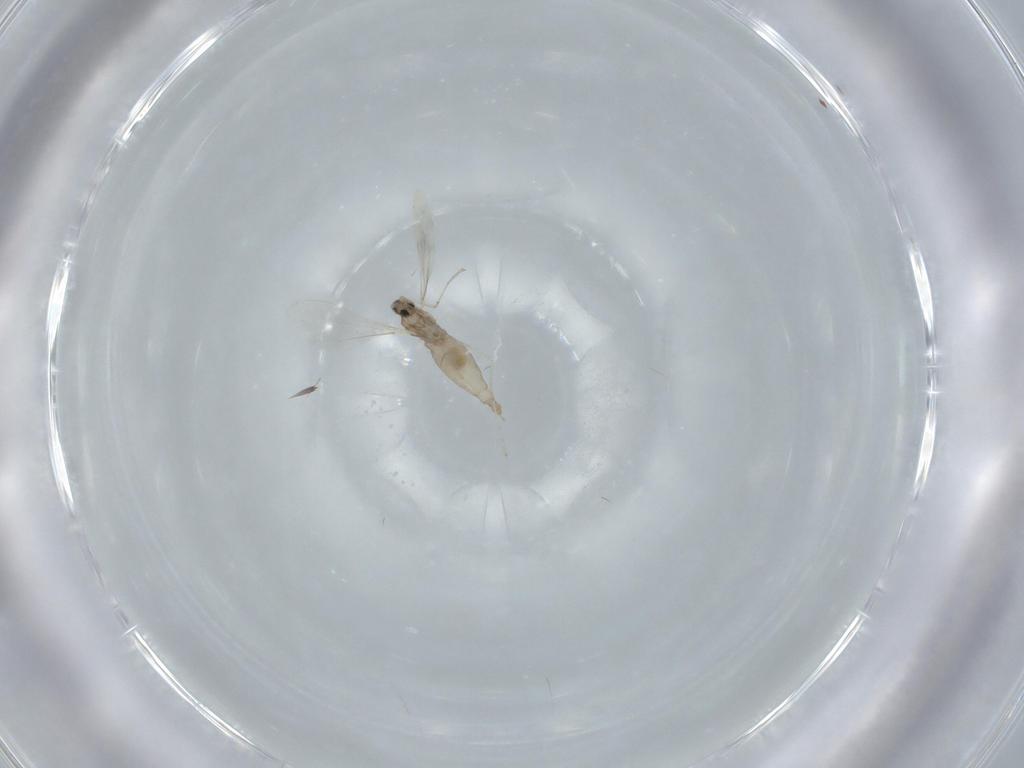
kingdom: Animalia
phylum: Arthropoda
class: Insecta
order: Diptera
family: Cecidomyiidae
